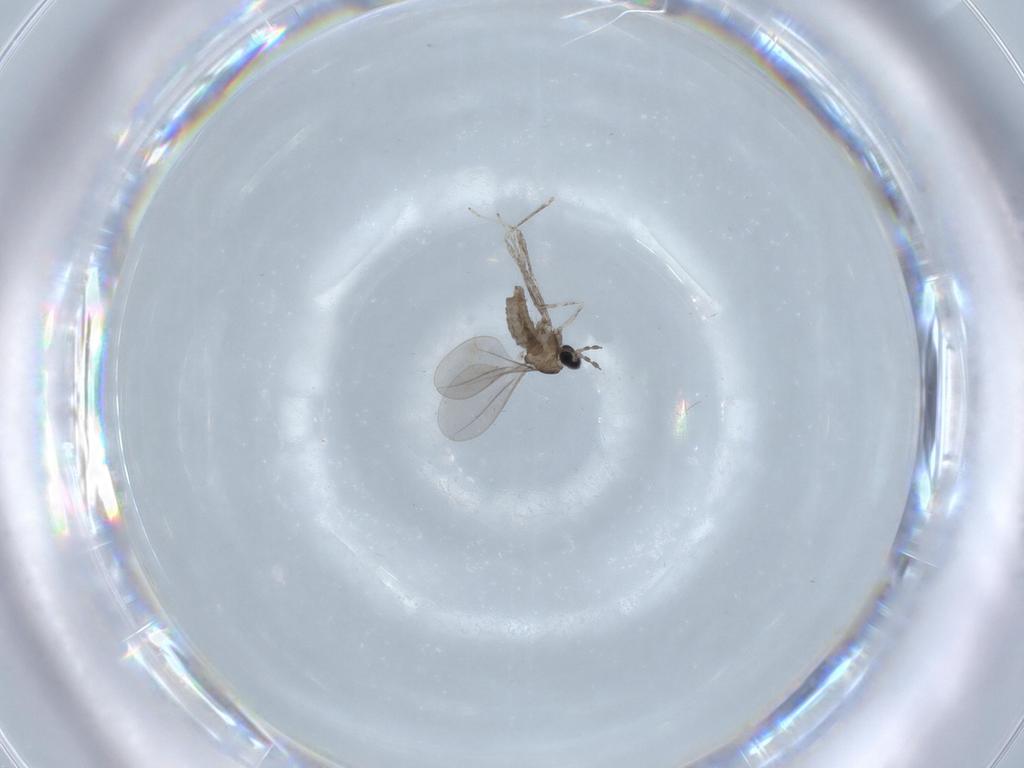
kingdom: Animalia
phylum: Arthropoda
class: Insecta
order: Diptera
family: Cecidomyiidae
